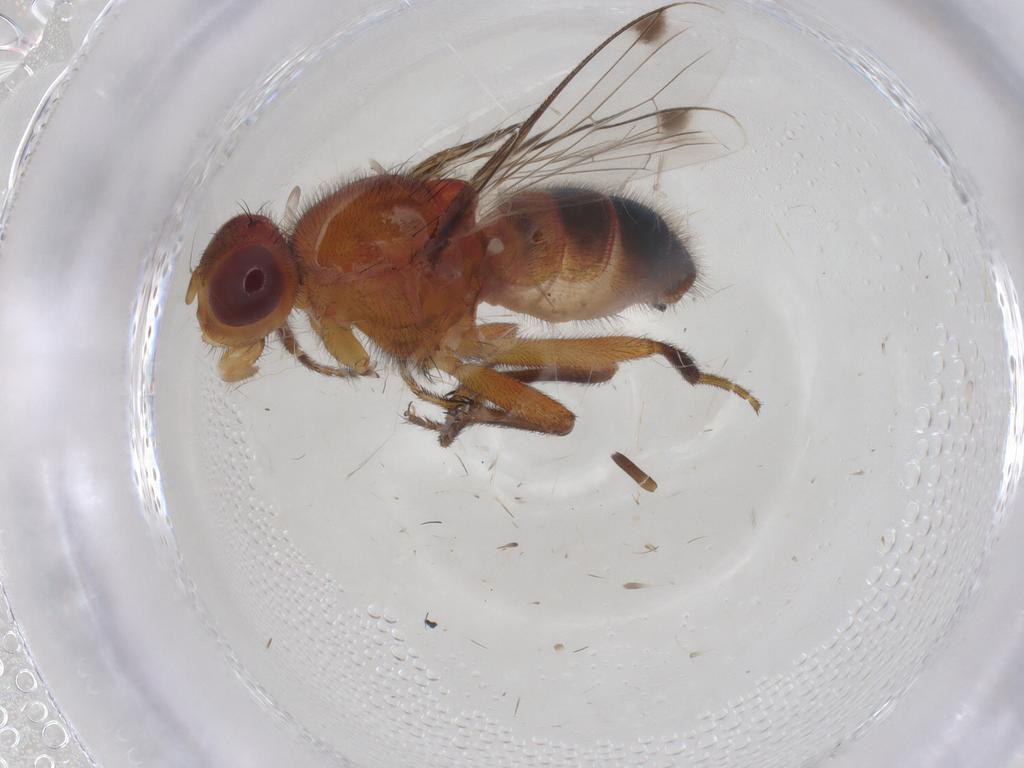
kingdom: Animalia
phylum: Arthropoda
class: Insecta
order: Diptera
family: Richardiidae
